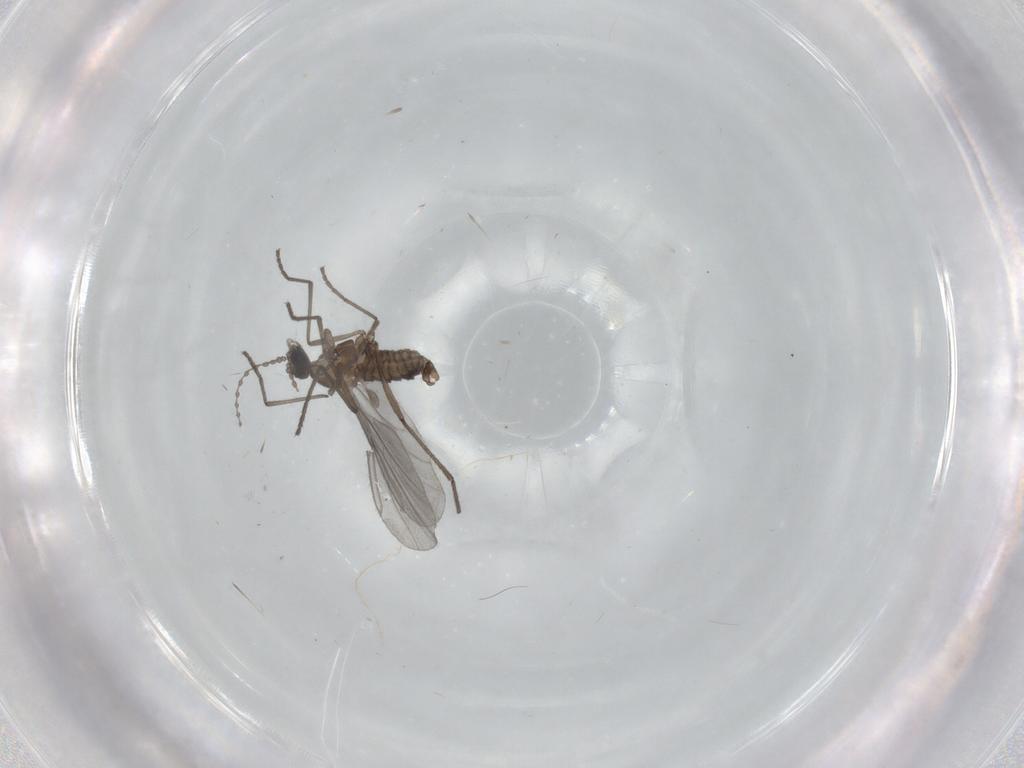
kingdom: Animalia
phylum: Arthropoda
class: Insecta
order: Diptera
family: Cecidomyiidae
